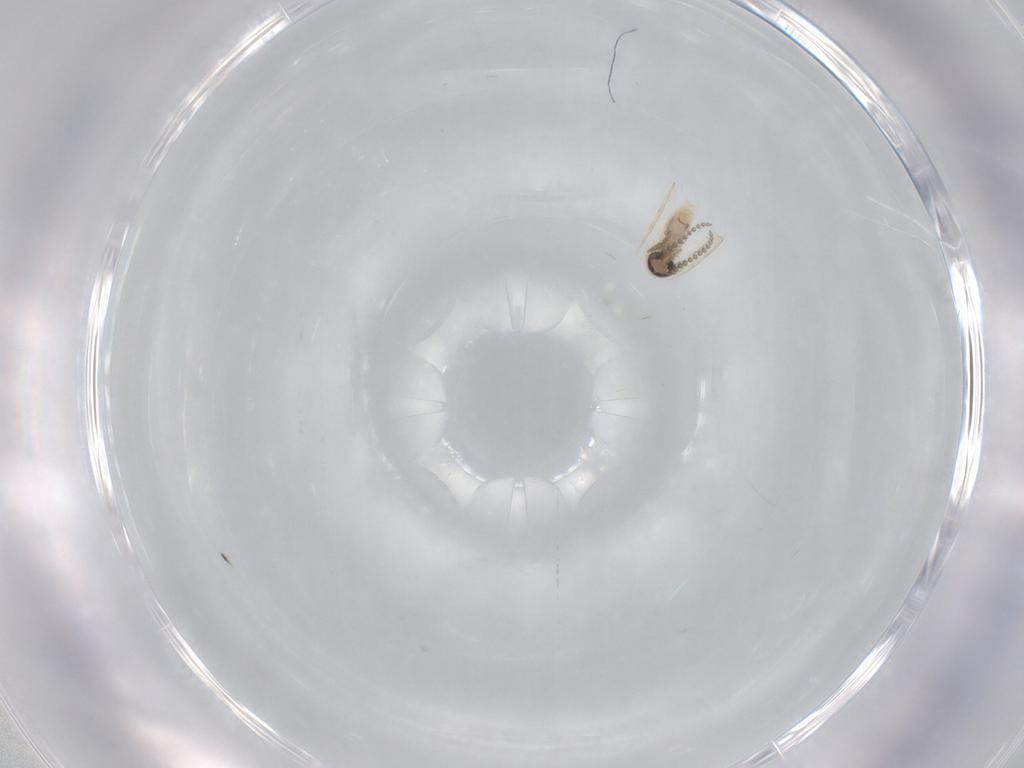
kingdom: Animalia
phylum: Arthropoda
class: Insecta
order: Diptera
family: Psychodidae
